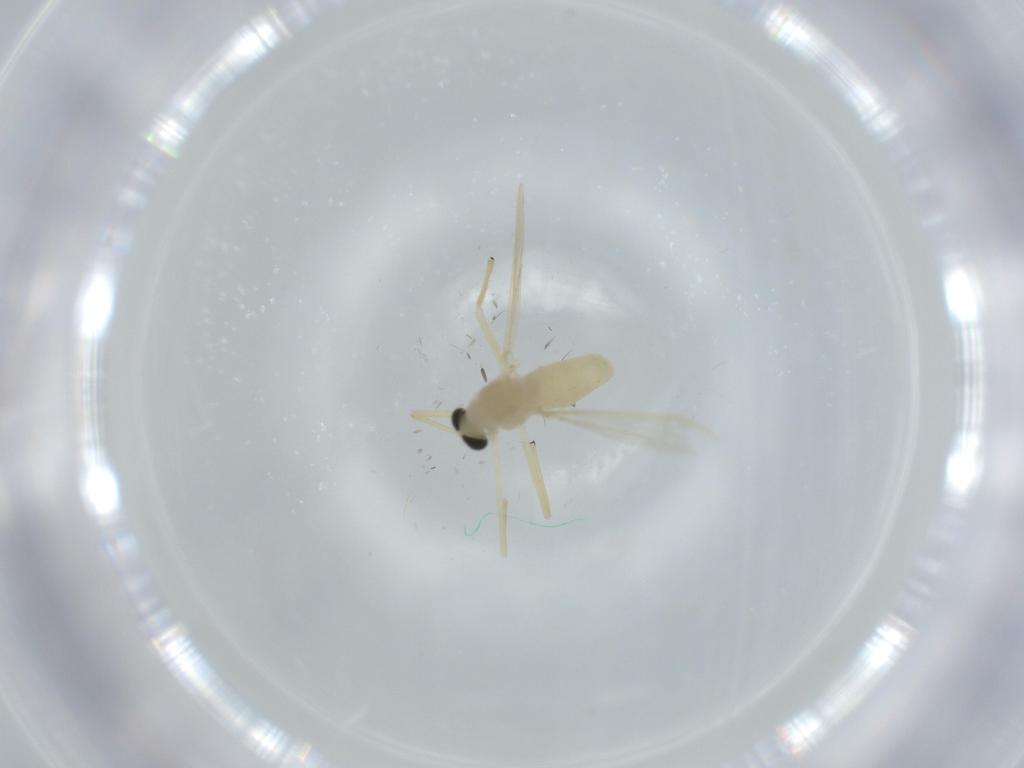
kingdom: Animalia
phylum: Arthropoda
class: Insecta
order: Diptera
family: Chironomidae
